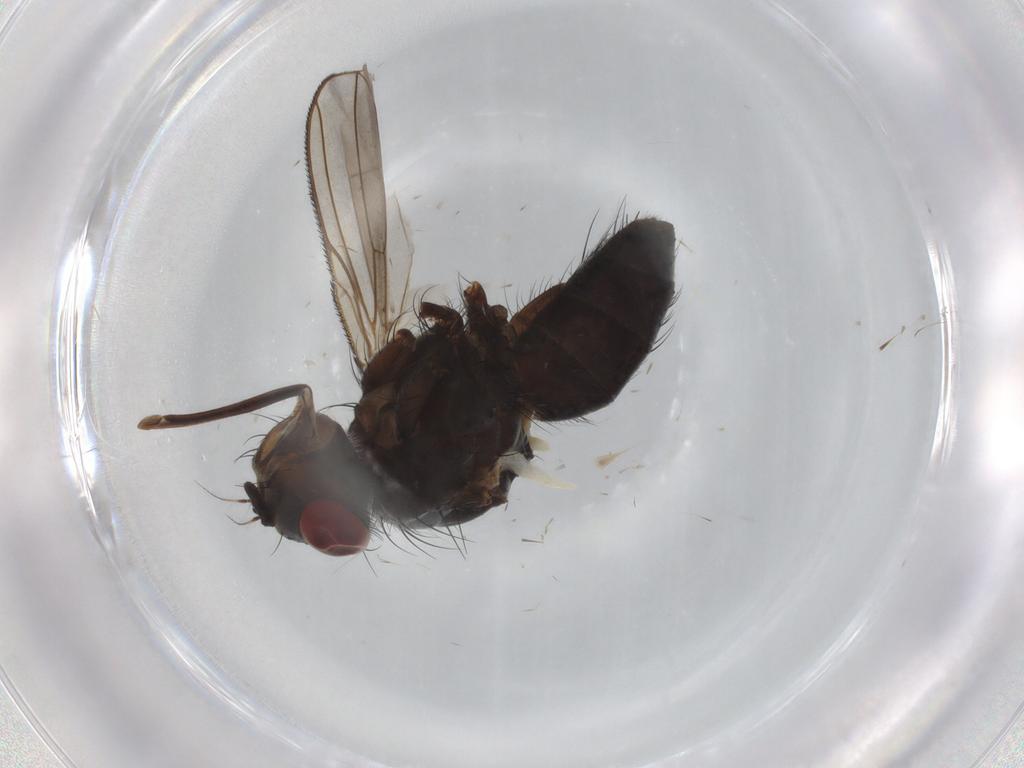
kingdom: Animalia
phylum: Arthropoda
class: Insecta
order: Diptera
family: Tachinidae
